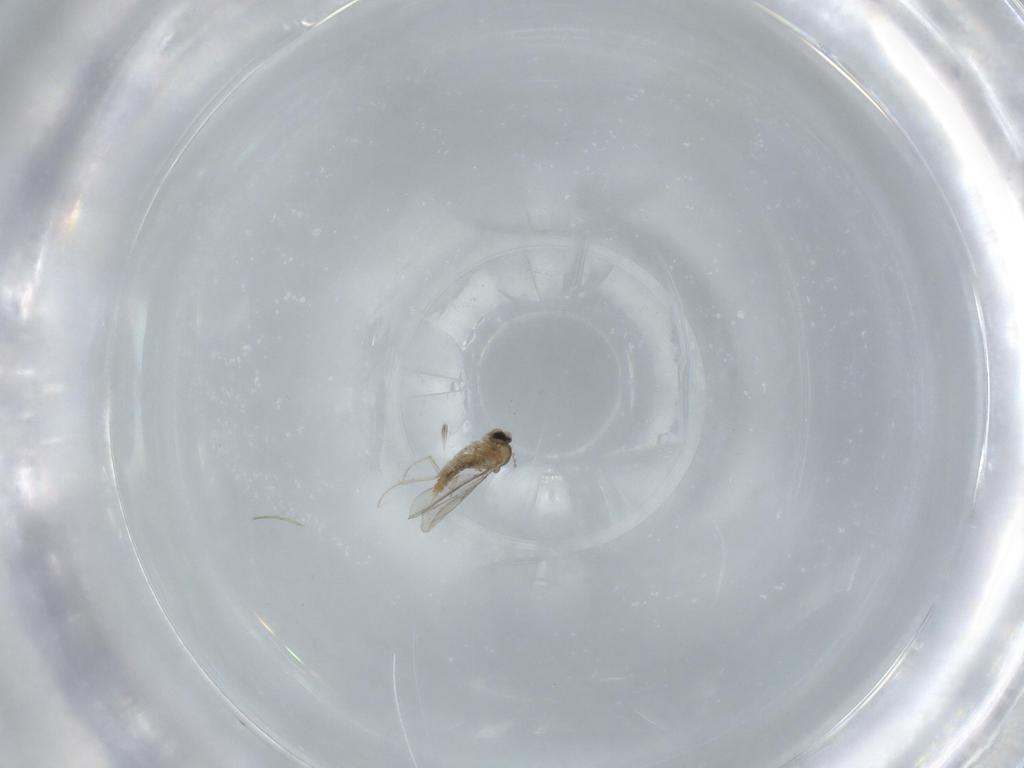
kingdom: Animalia
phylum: Arthropoda
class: Insecta
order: Diptera
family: Cecidomyiidae
